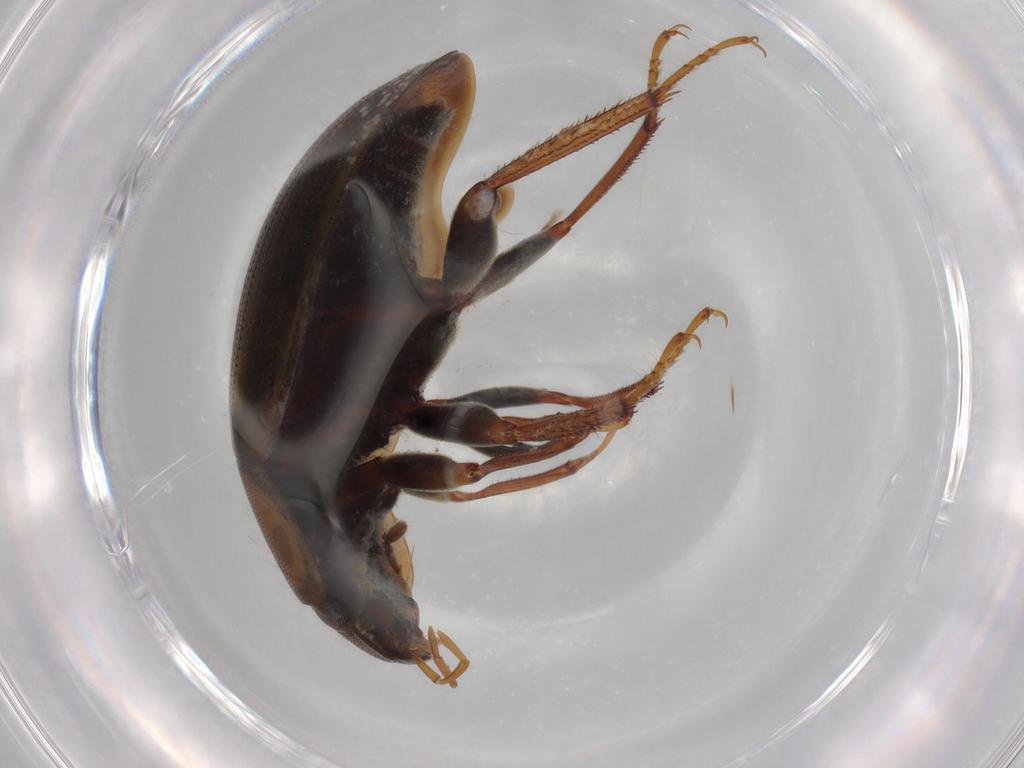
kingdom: Animalia
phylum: Arthropoda
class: Insecta
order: Coleoptera
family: Hydrophilidae
